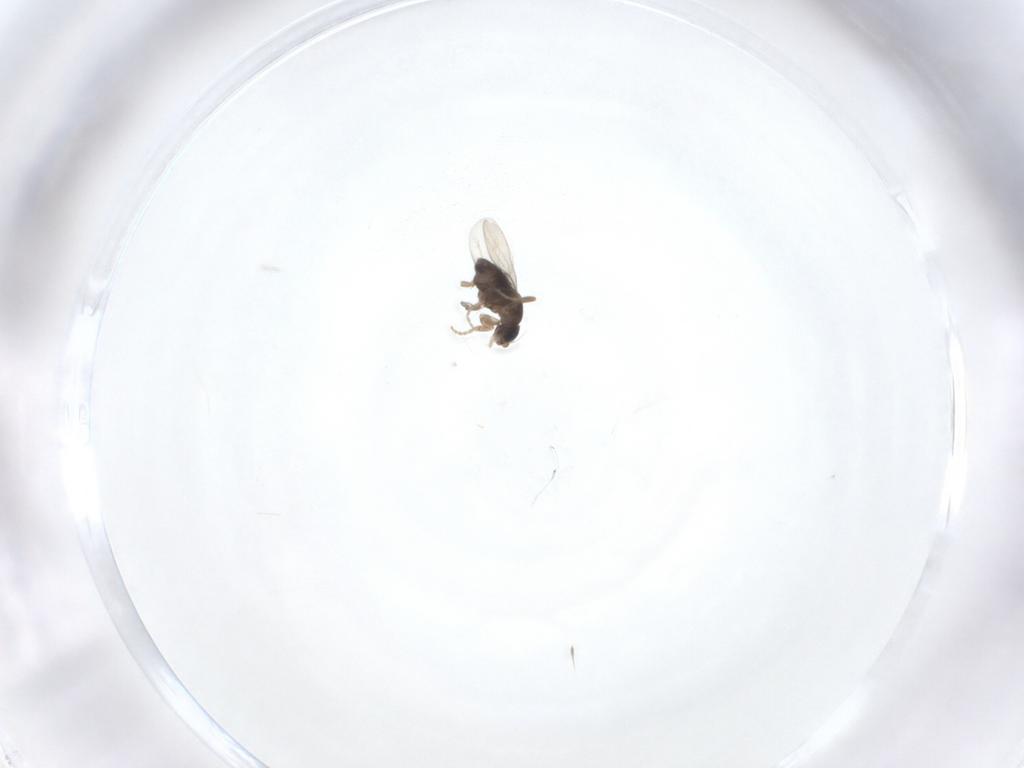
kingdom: Animalia
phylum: Arthropoda
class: Insecta
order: Diptera
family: Phoridae
